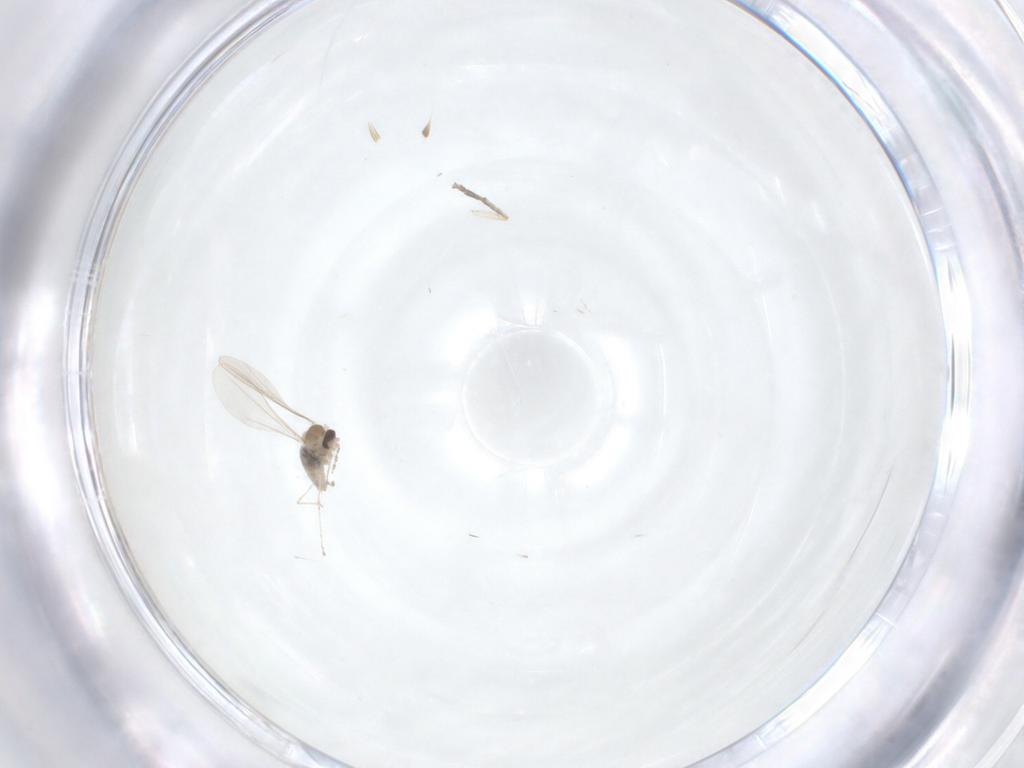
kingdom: Animalia
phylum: Arthropoda
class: Insecta
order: Diptera
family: Cecidomyiidae
